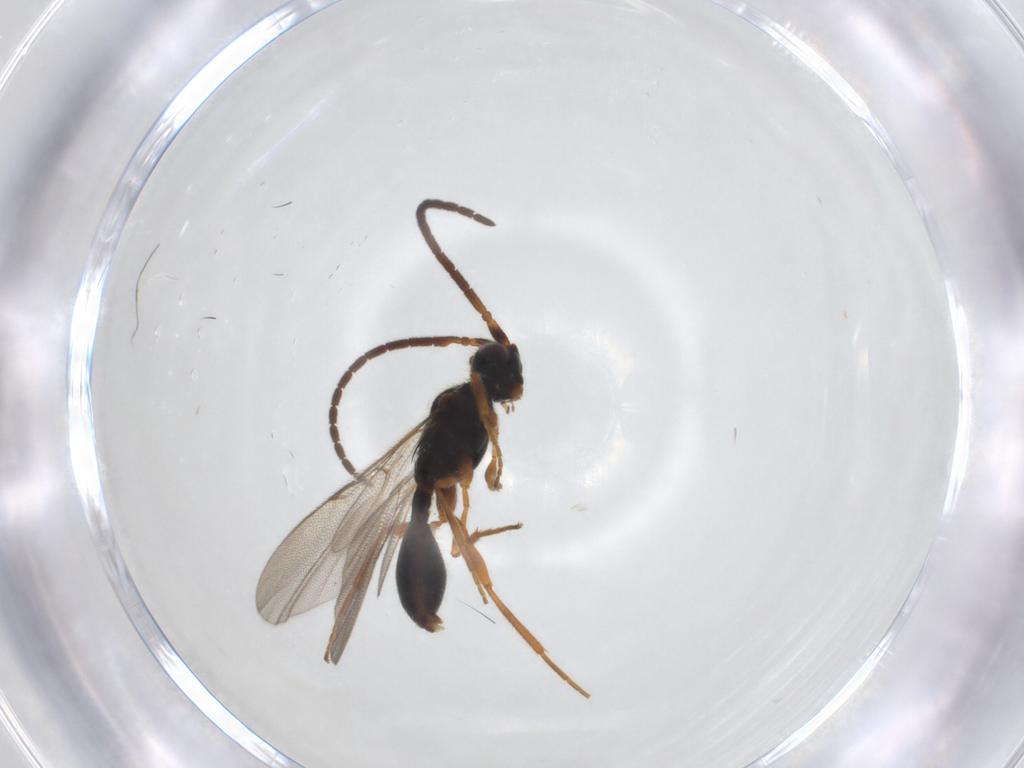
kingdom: Animalia
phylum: Arthropoda
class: Insecta
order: Hymenoptera
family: Diapriidae
